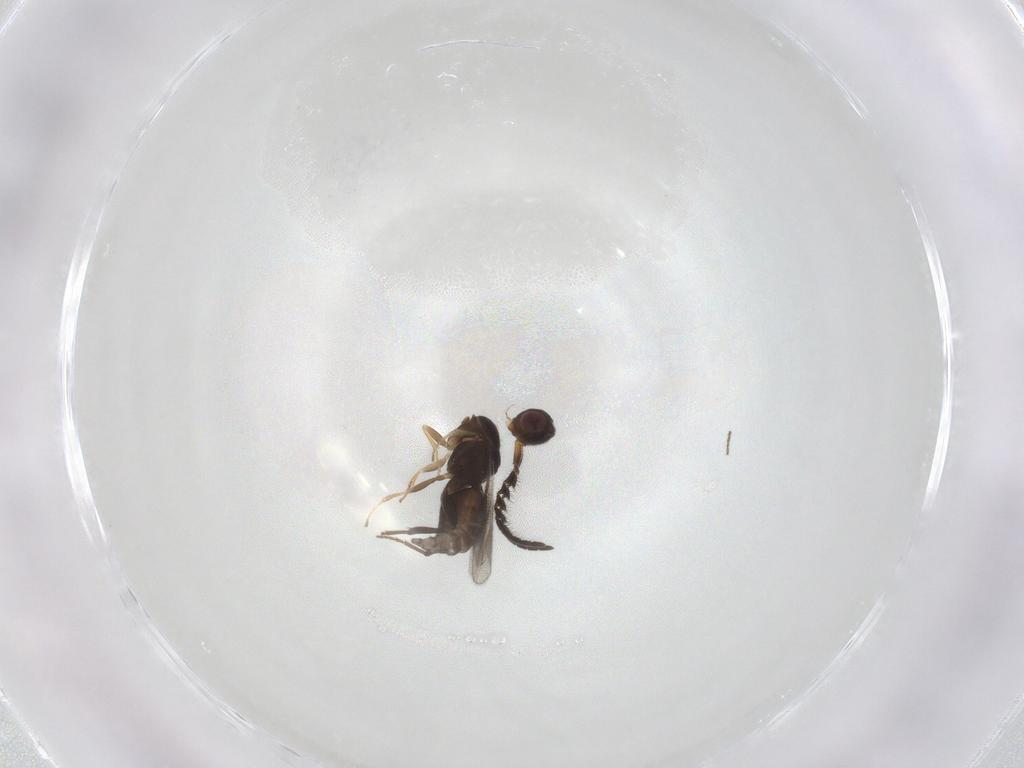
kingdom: Animalia
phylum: Arthropoda
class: Insecta
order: Hymenoptera
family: Megaspilidae
